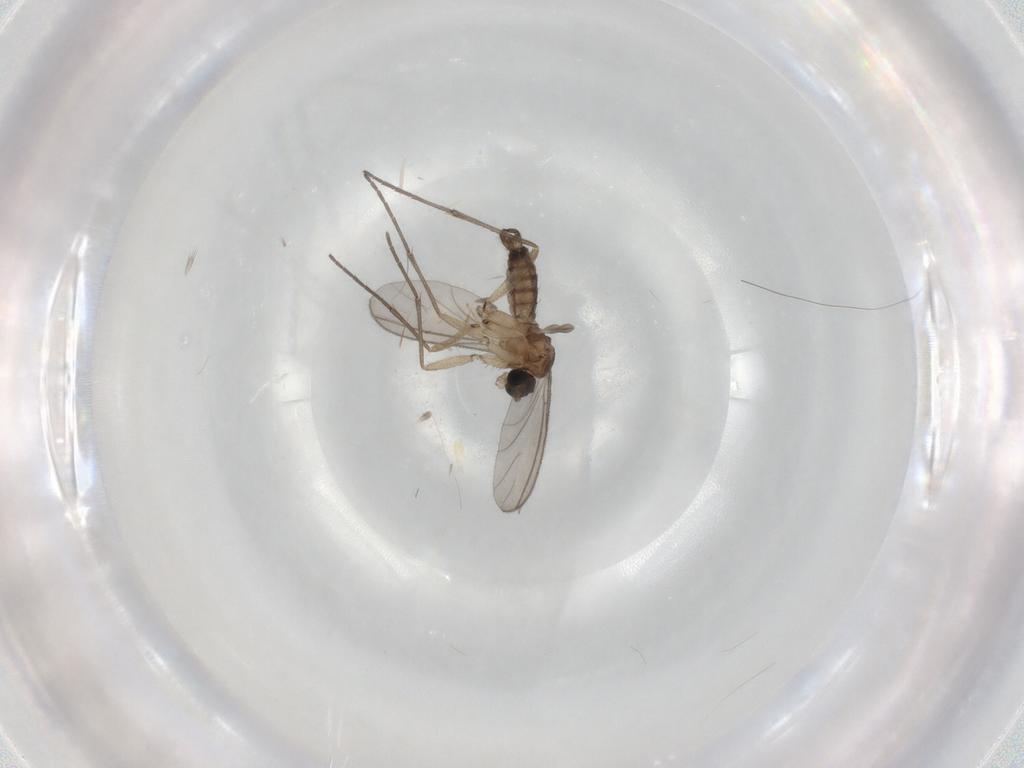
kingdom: Animalia
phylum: Arthropoda
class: Insecta
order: Diptera
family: Sciaridae
